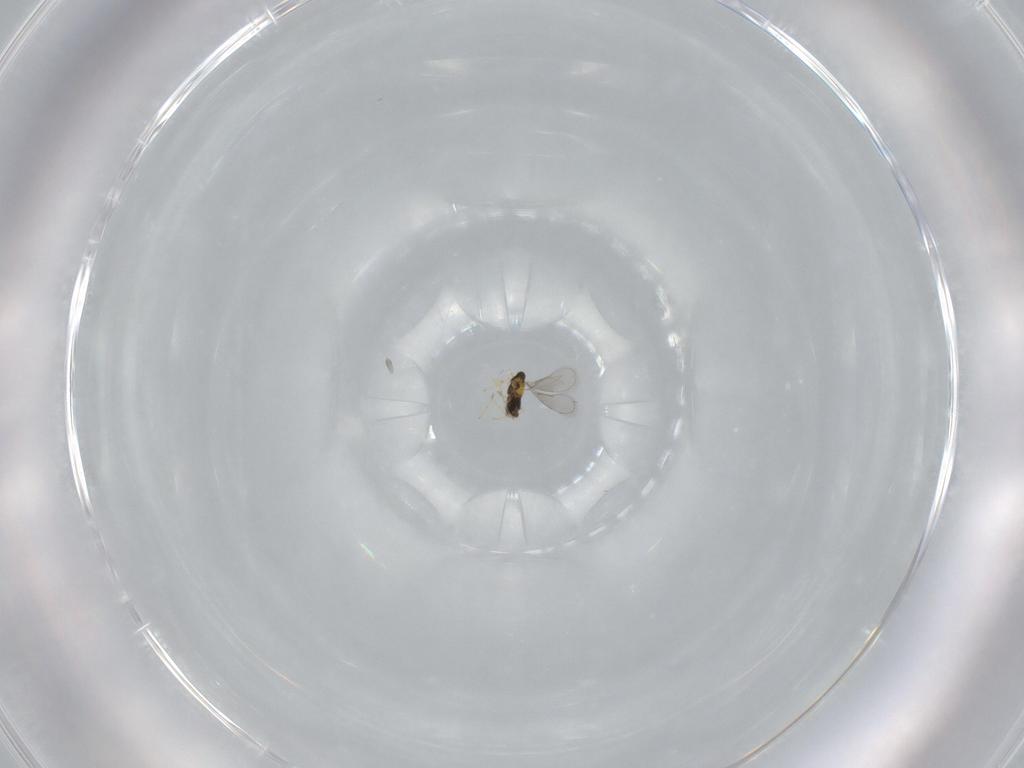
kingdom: Animalia
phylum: Arthropoda
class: Insecta
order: Hymenoptera
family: Aphelinidae
